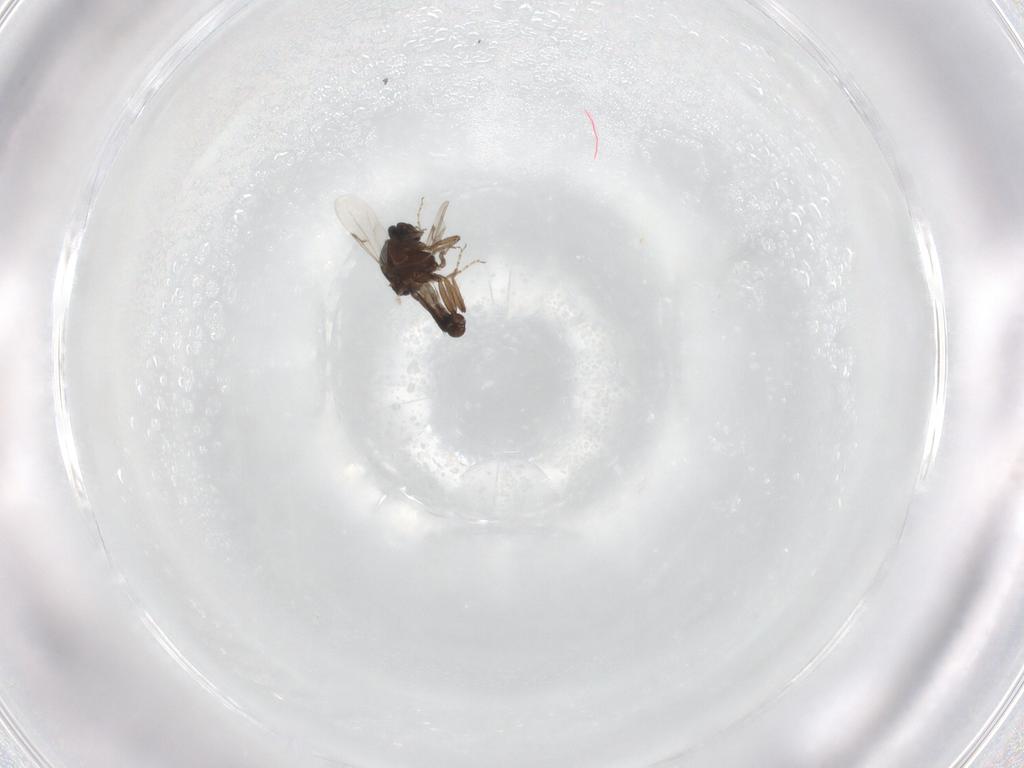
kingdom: Animalia
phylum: Arthropoda
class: Insecta
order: Diptera
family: Ceratopogonidae
